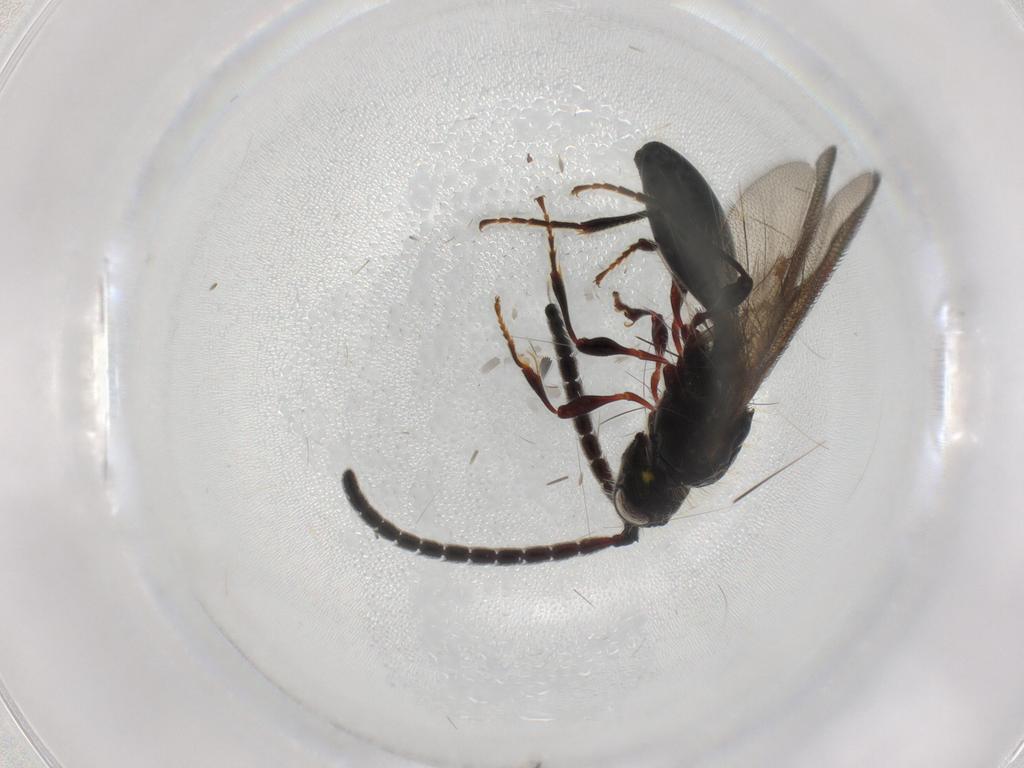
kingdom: Animalia
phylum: Arthropoda
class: Insecta
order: Hymenoptera
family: Diapriidae
